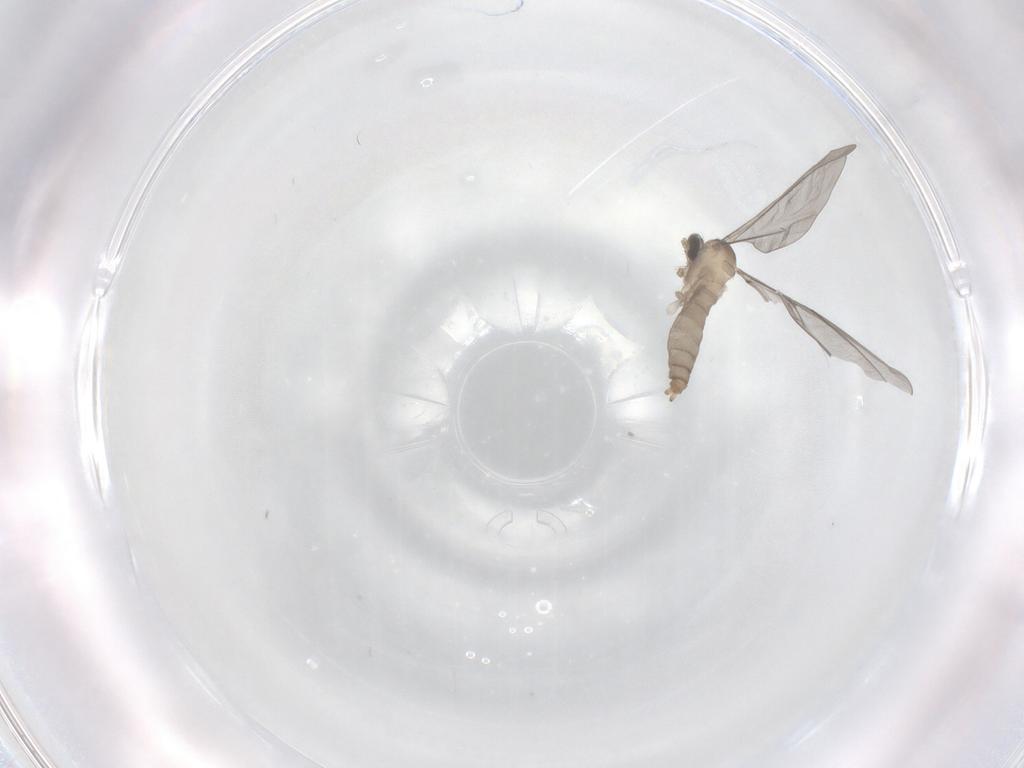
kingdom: Animalia
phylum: Arthropoda
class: Insecta
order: Diptera
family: Cecidomyiidae
